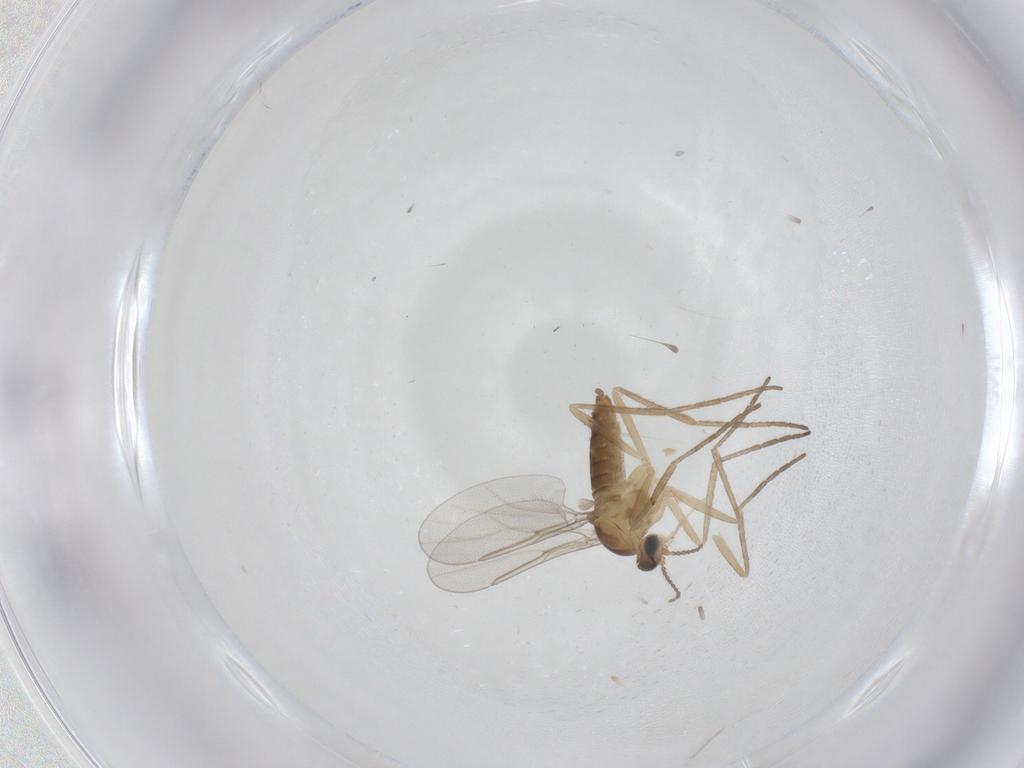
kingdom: Animalia
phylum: Arthropoda
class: Insecta
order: Diptera
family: Cecidomyiidae
